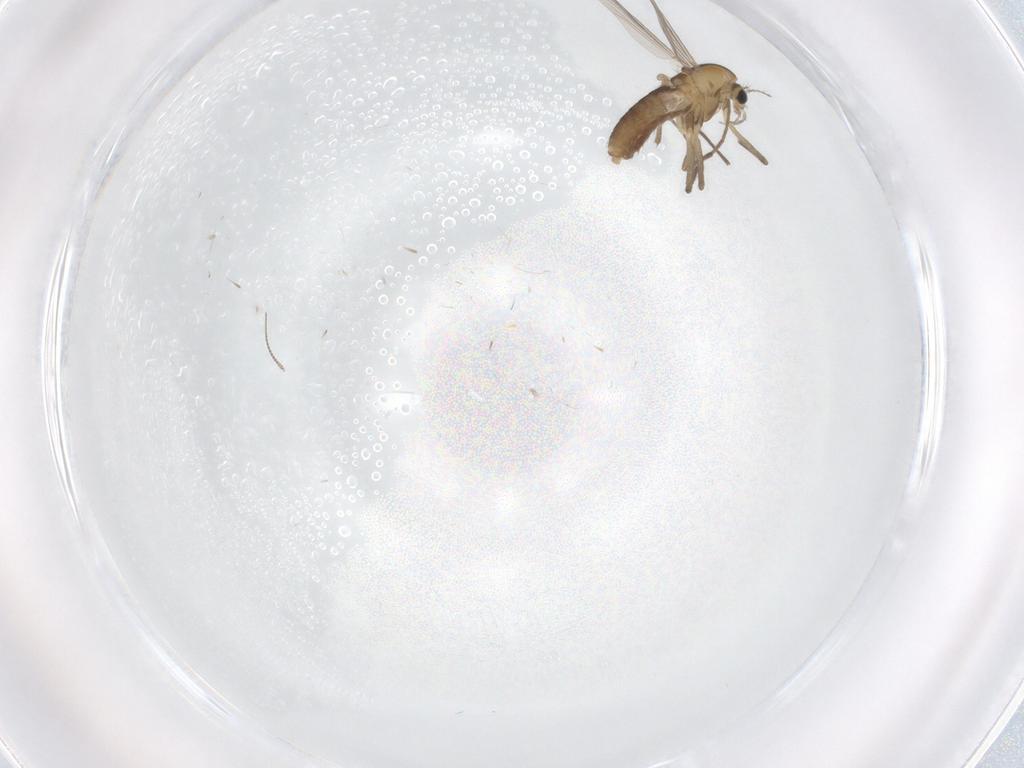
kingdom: Animalia
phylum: Arthropoda
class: Insecta
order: Diptera
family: Chironomidae
